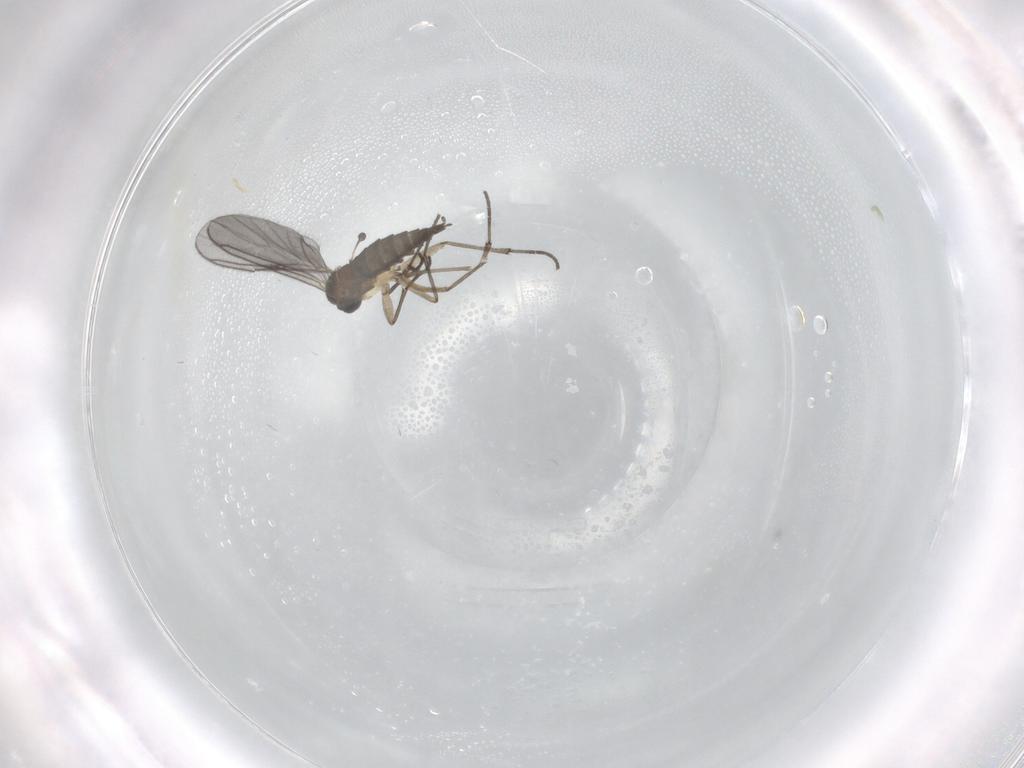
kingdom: Animalia
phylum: Arthropoda
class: Insecta
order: Diptera
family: Sciaridae
